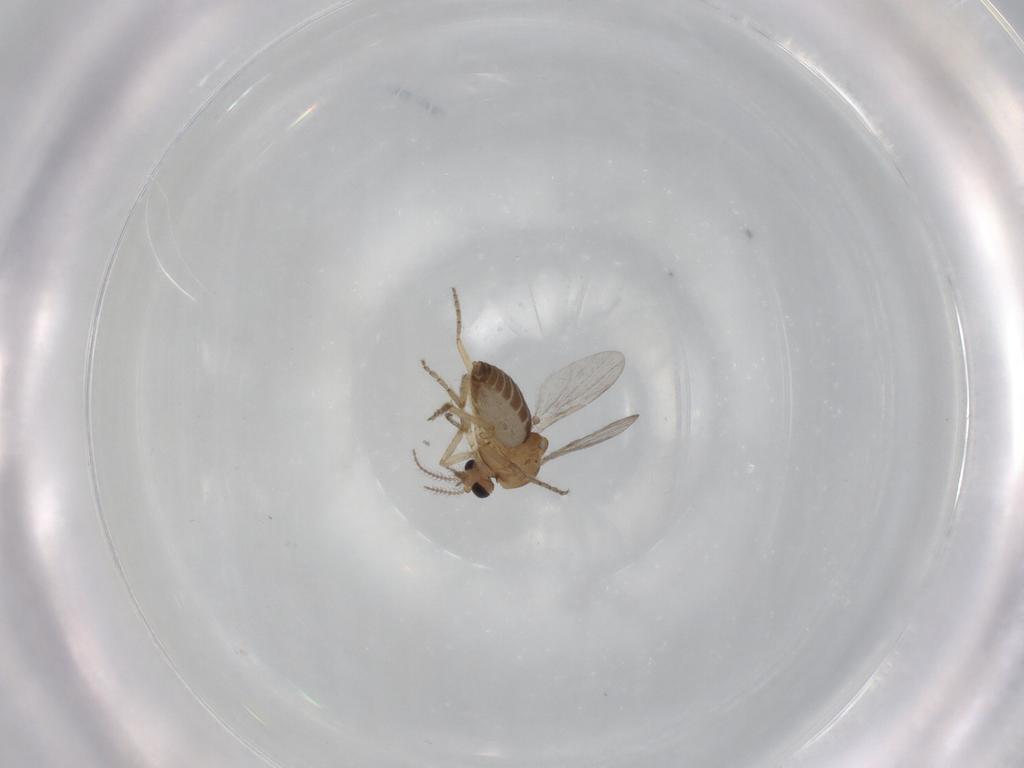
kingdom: Animalia
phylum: Arthropoda
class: Insecta
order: Diptera
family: Ceratopogonidae
